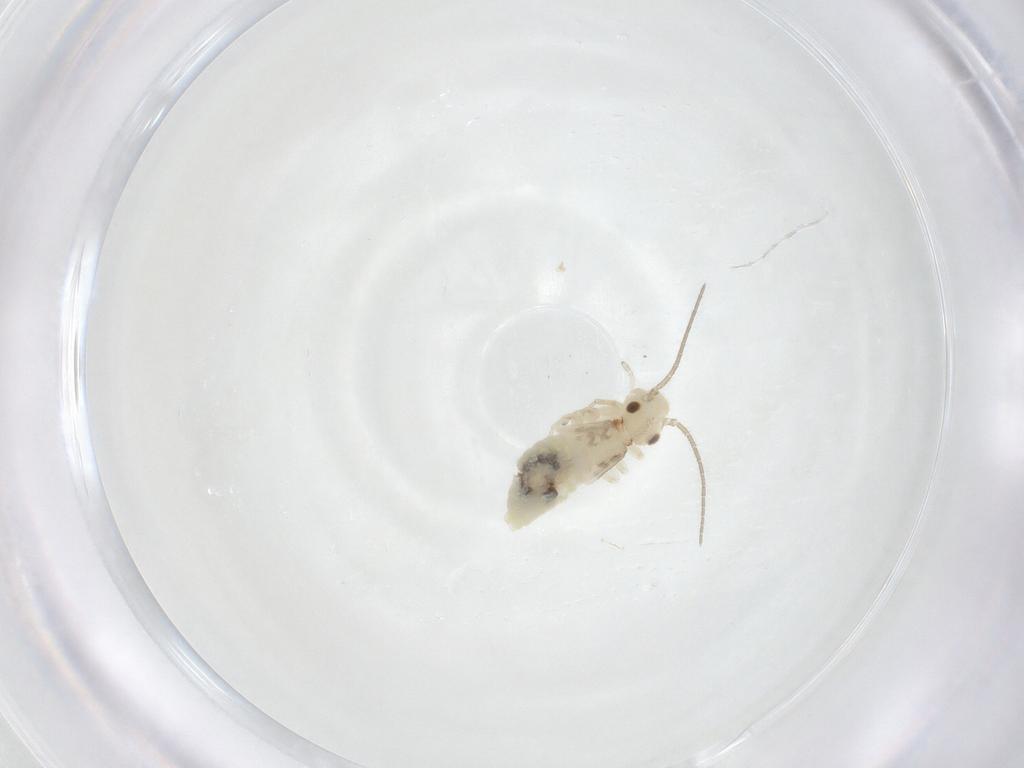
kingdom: Animalia
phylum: Arthropoda
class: Insecta
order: Psocodea
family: Caeciliusidae
